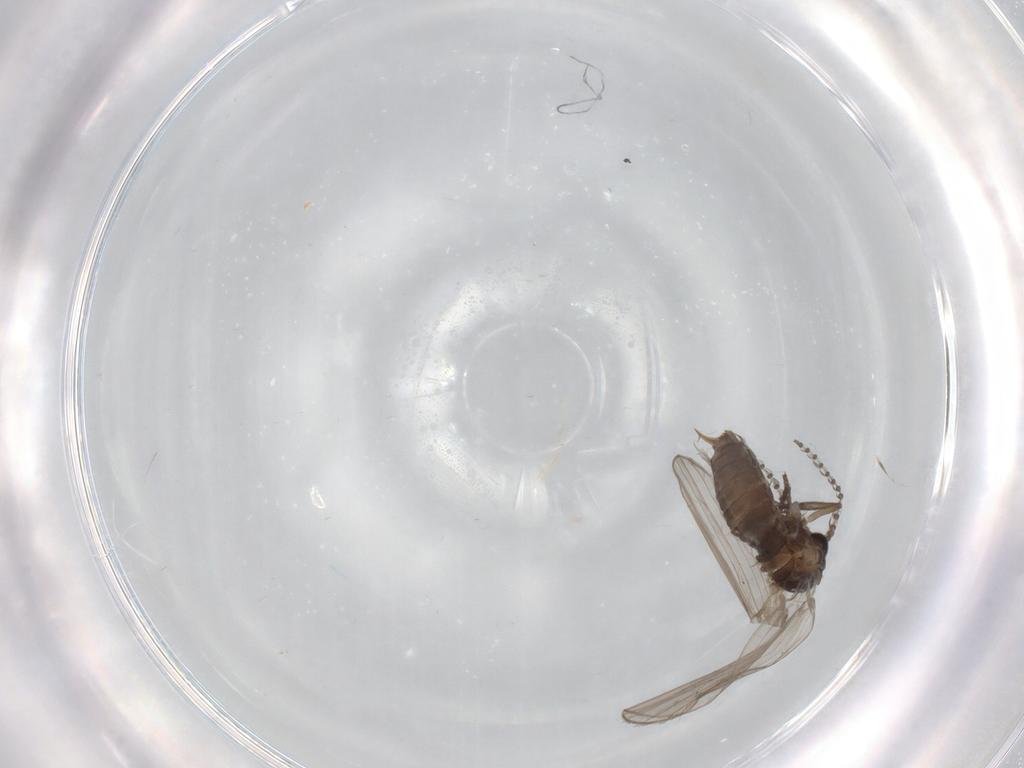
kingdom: Animalia
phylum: Arthropoda
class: Insecta
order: Diptera
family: Psychodidae
